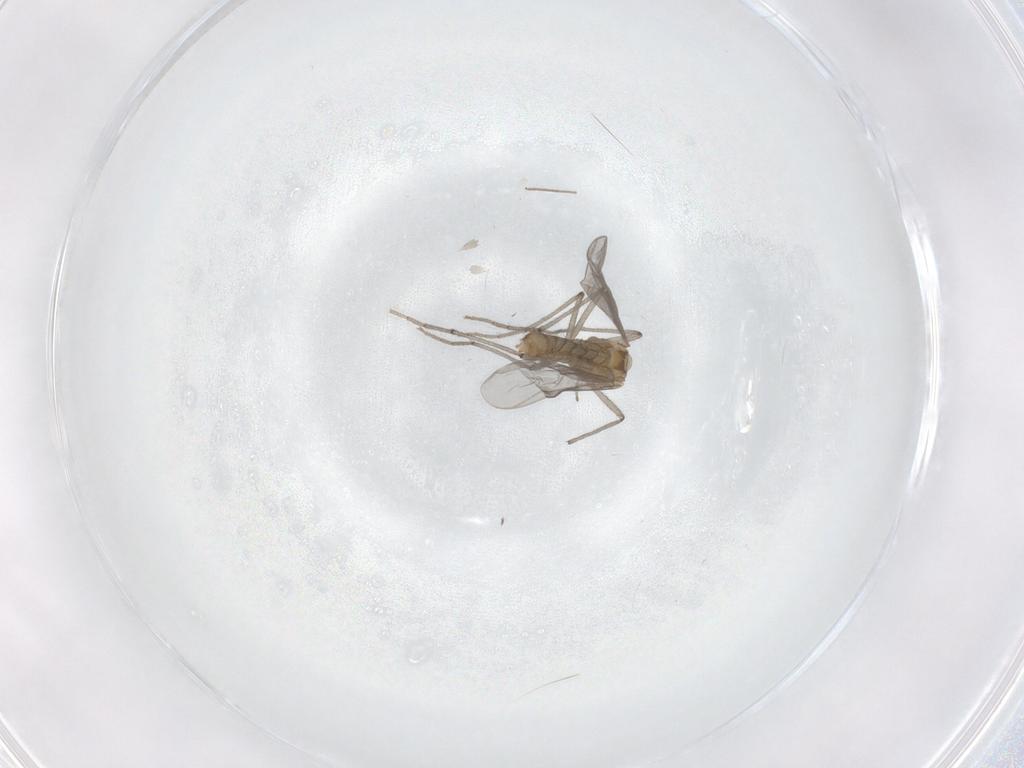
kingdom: Animalia
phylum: Arthropoda
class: Insecta
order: Diptera
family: Chironomidae
